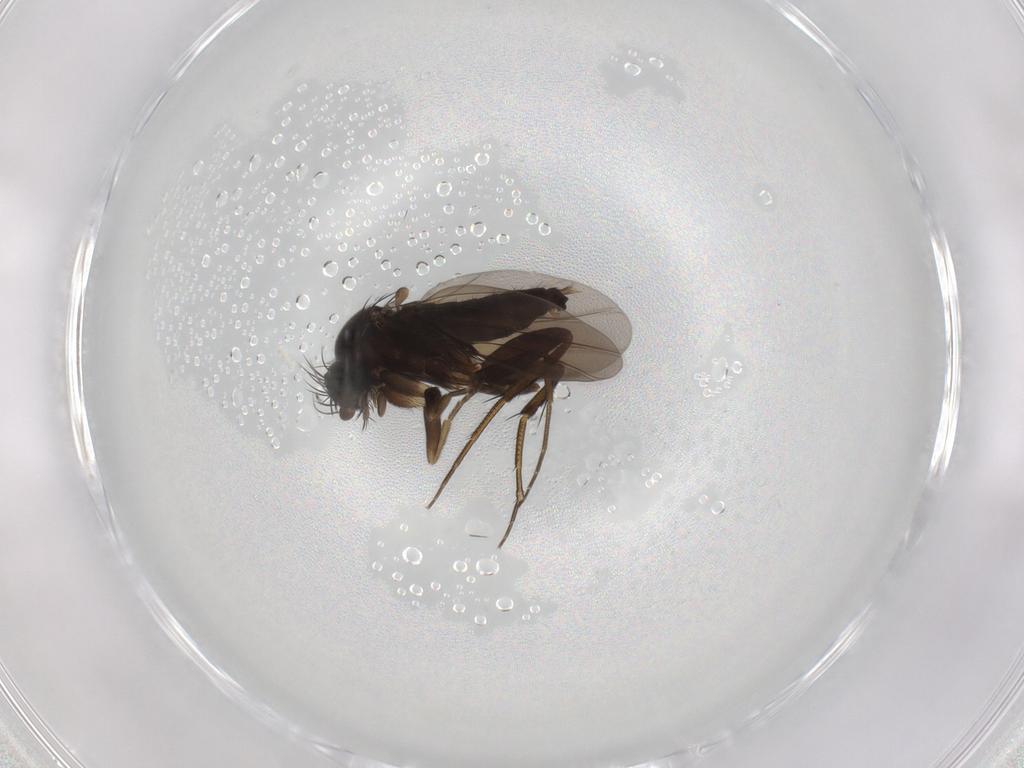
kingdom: Animalia
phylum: Arthropoda
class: Insecta
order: Diptera
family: Phoridae
